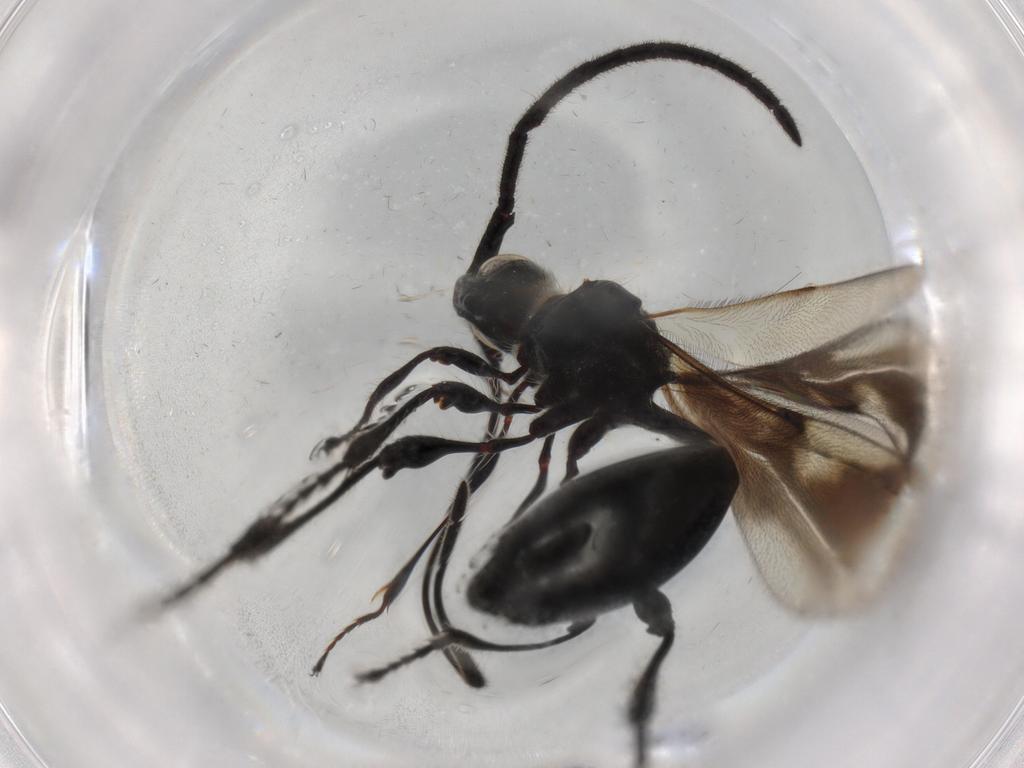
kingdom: Animalia
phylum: Arthropoda
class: Insecta
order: Hymenoptera
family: Diapriidae
